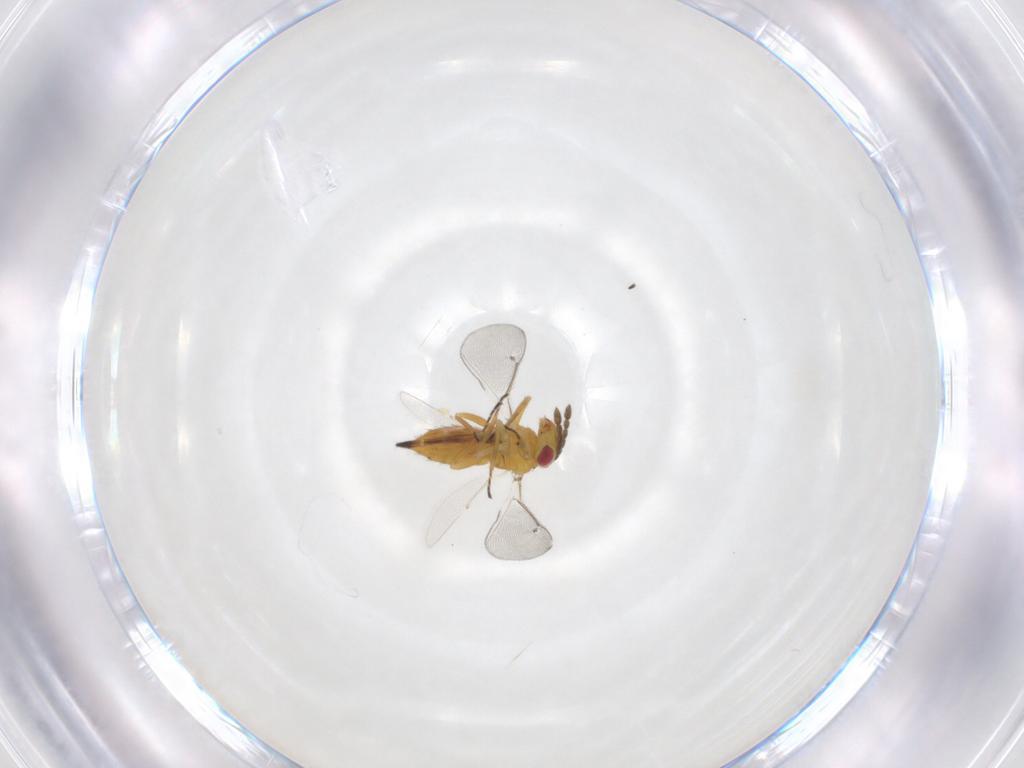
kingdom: Animalia
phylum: Arthropoda
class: Insecta
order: Hymenoptera
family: Eulophidae
